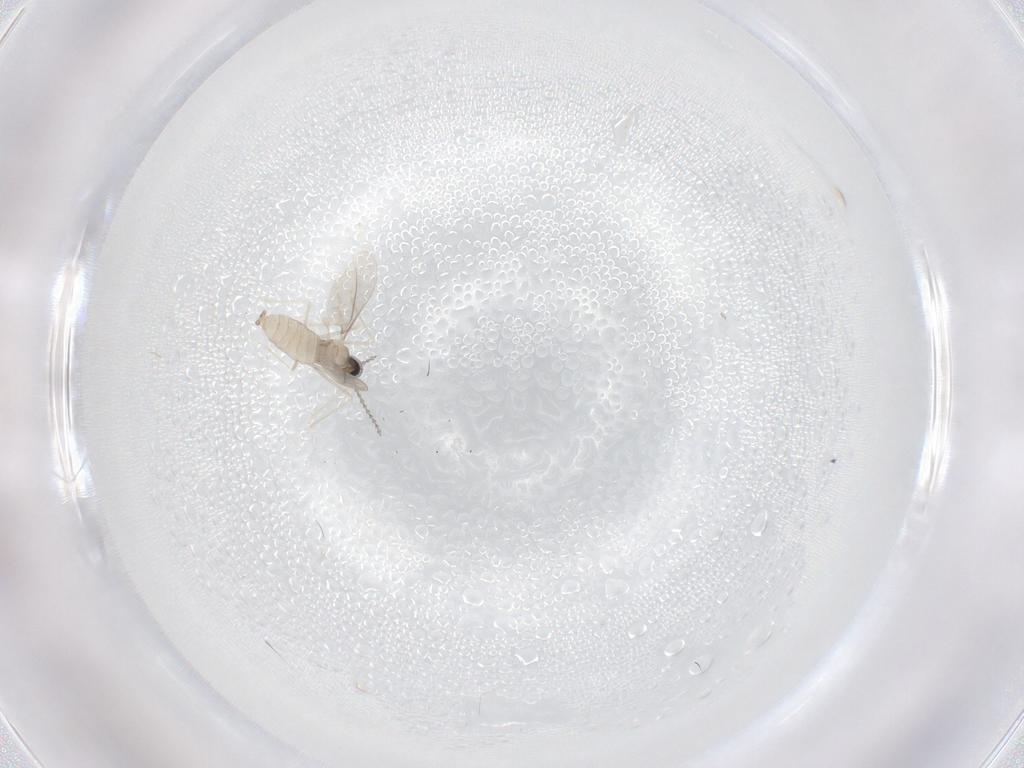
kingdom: Animalia
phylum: Arthropoda
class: Insecta
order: Diptera
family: Cecidomyiidae
